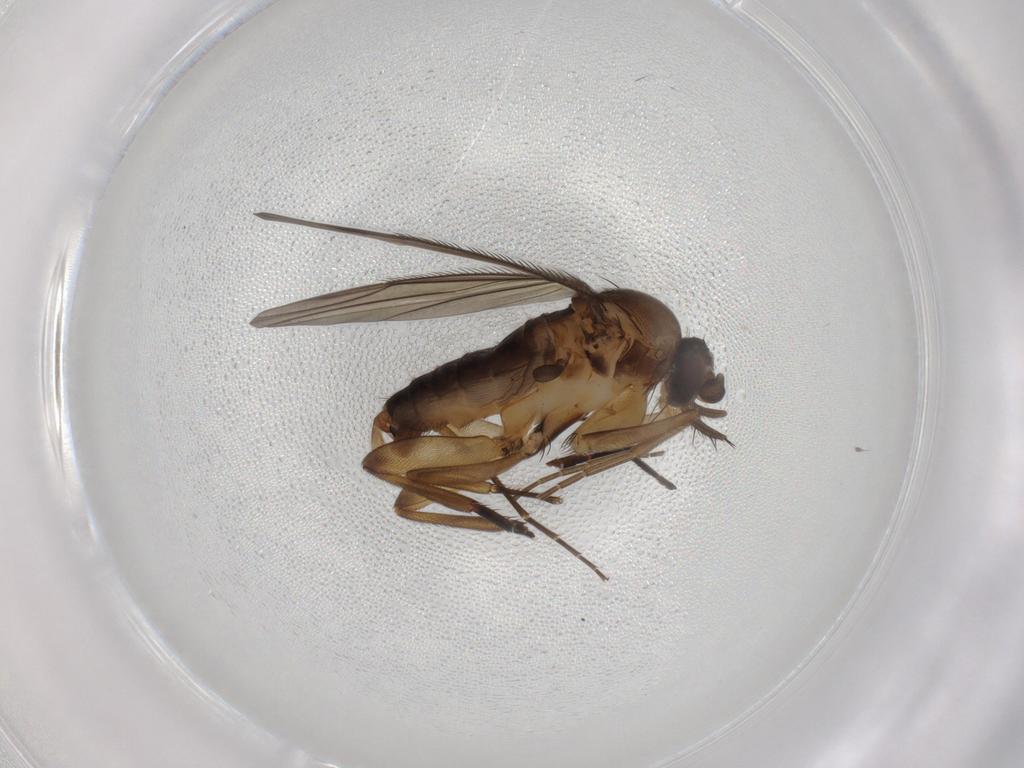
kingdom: Animalia
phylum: Arthropoda
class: Insecta
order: Diptera
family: Phoridae
